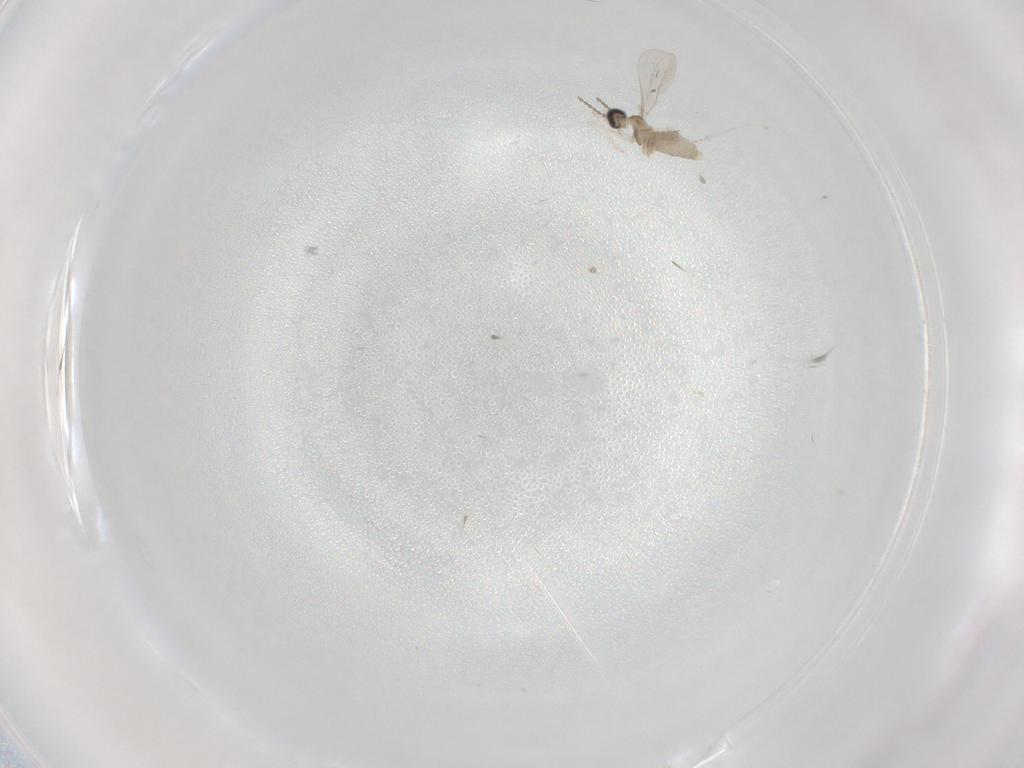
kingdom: Animalia
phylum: Arthropoda
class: Insecta
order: Diptera
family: Cecidomyiidae
